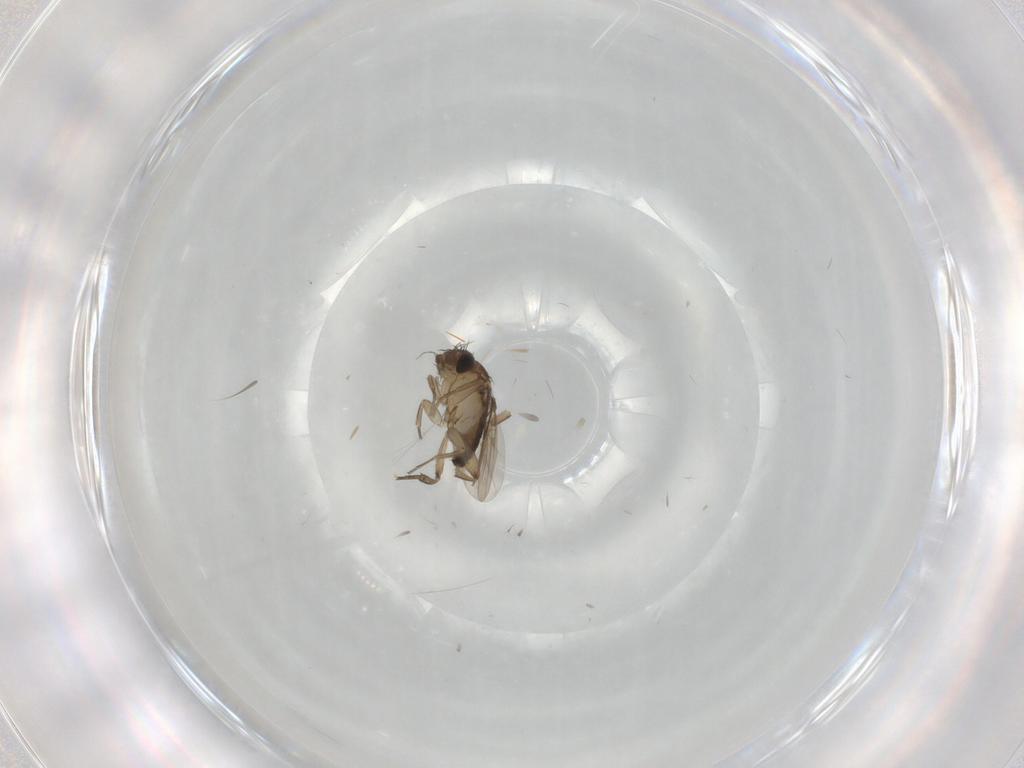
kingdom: Animalia
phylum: Arthropoda
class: Insecta
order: Diptera
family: Phoridae
